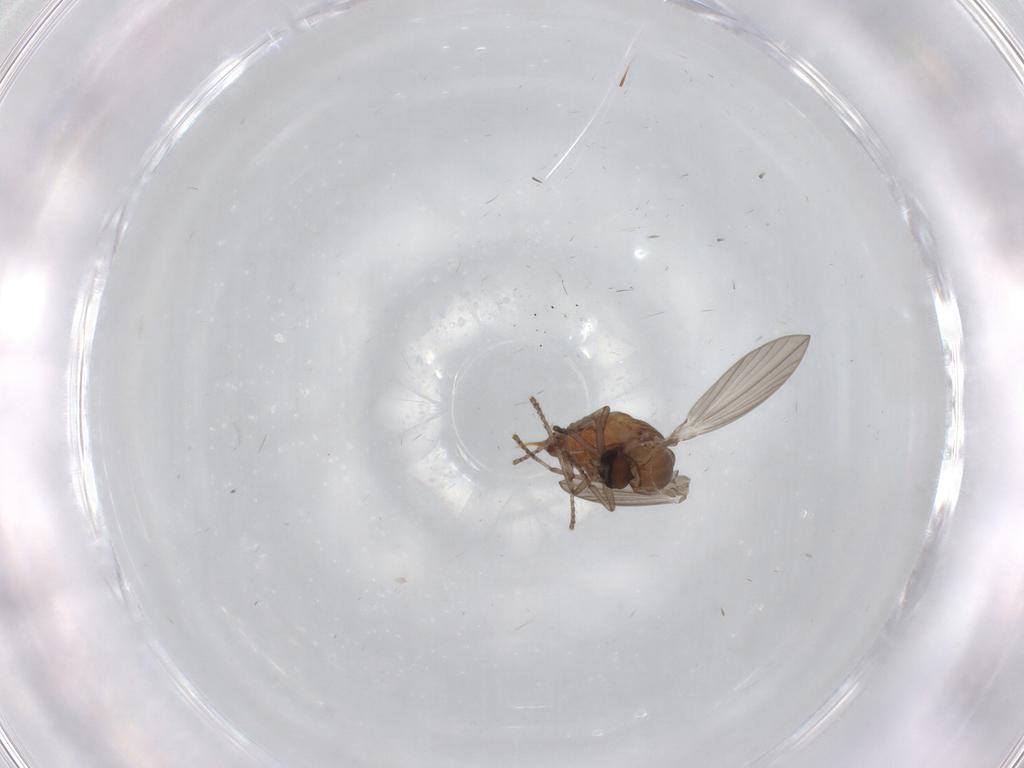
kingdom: Animalia
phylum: Arthropoda
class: Insecta
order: Diptera
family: Psychodidae
